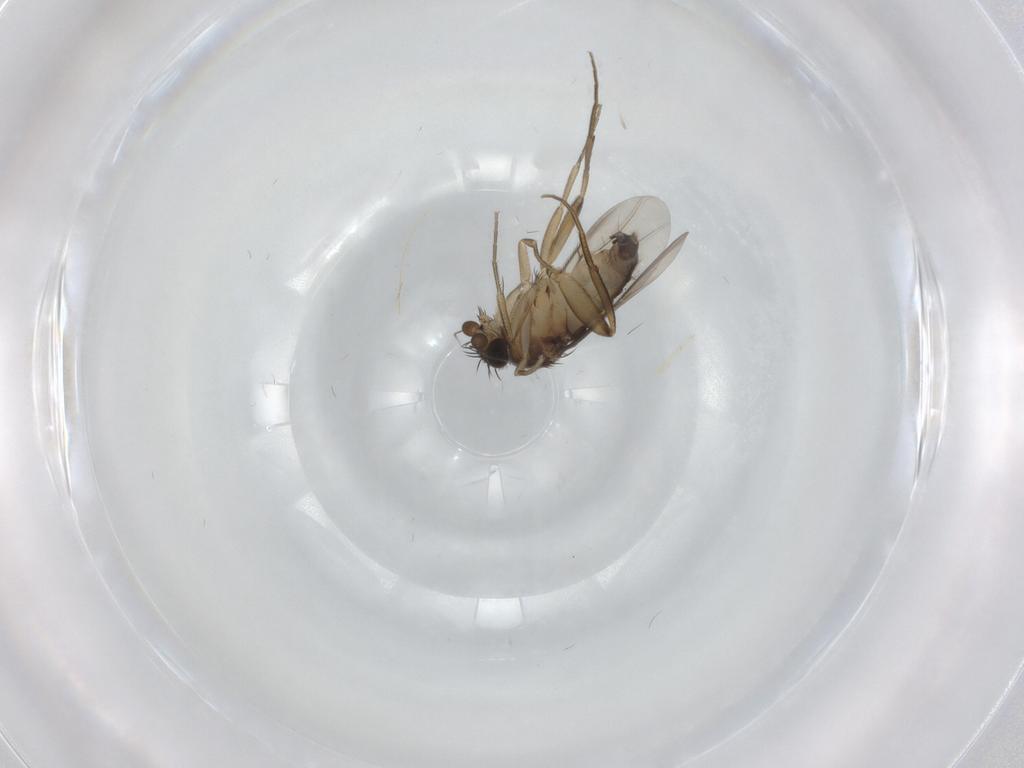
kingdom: Animalia
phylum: Arthropoda
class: Insecta
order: Diptera
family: Phoridae
